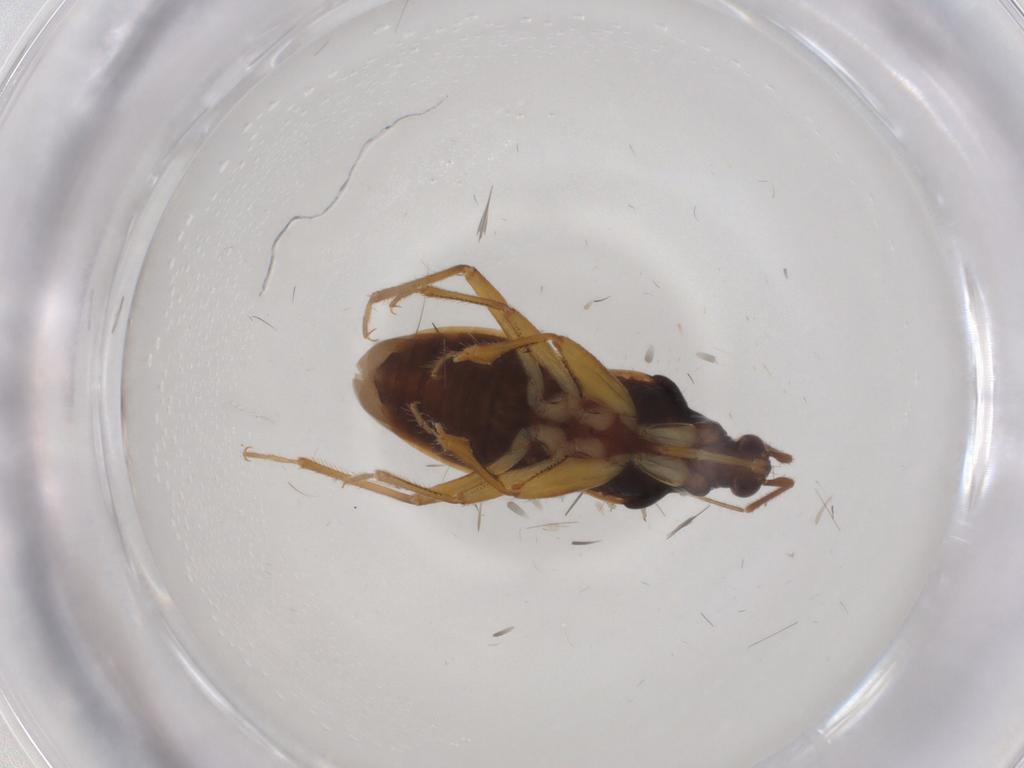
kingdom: Animalia
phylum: Arthropoda
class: Insecta
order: Hemiptera
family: Nabidae
